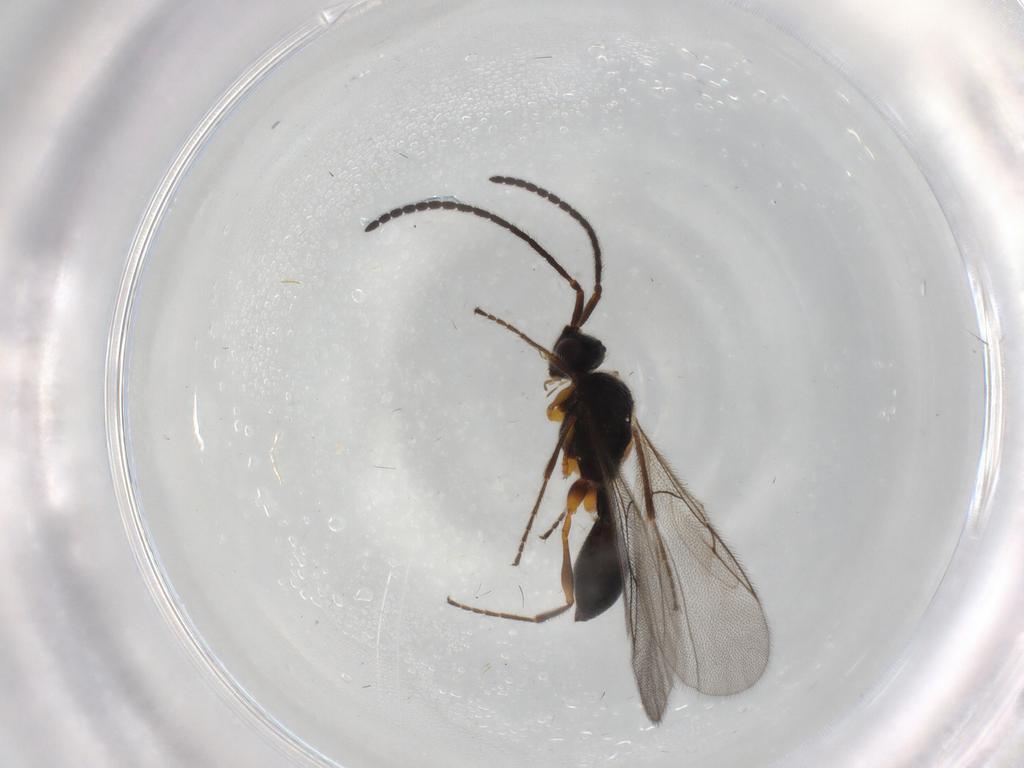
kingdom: Animalia
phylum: Arthropoda
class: Insecta
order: Hymenoptera
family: Diapriidae
